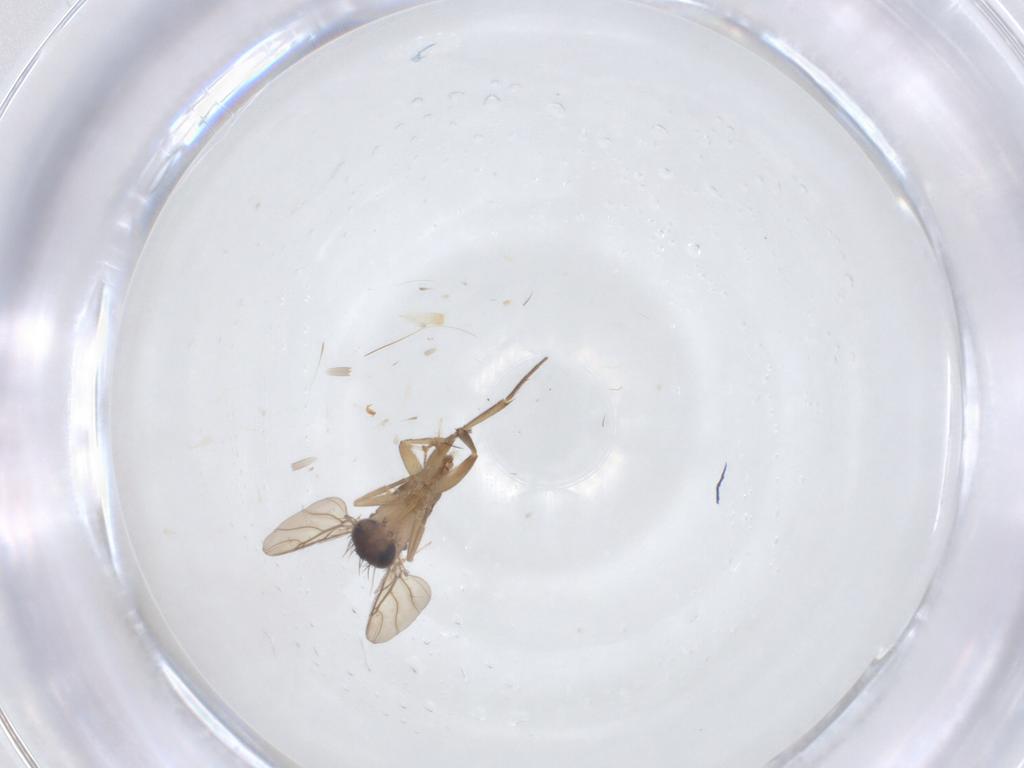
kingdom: Animalia
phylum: Arthropoda
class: Insecta
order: Diptera
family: Phoridae
